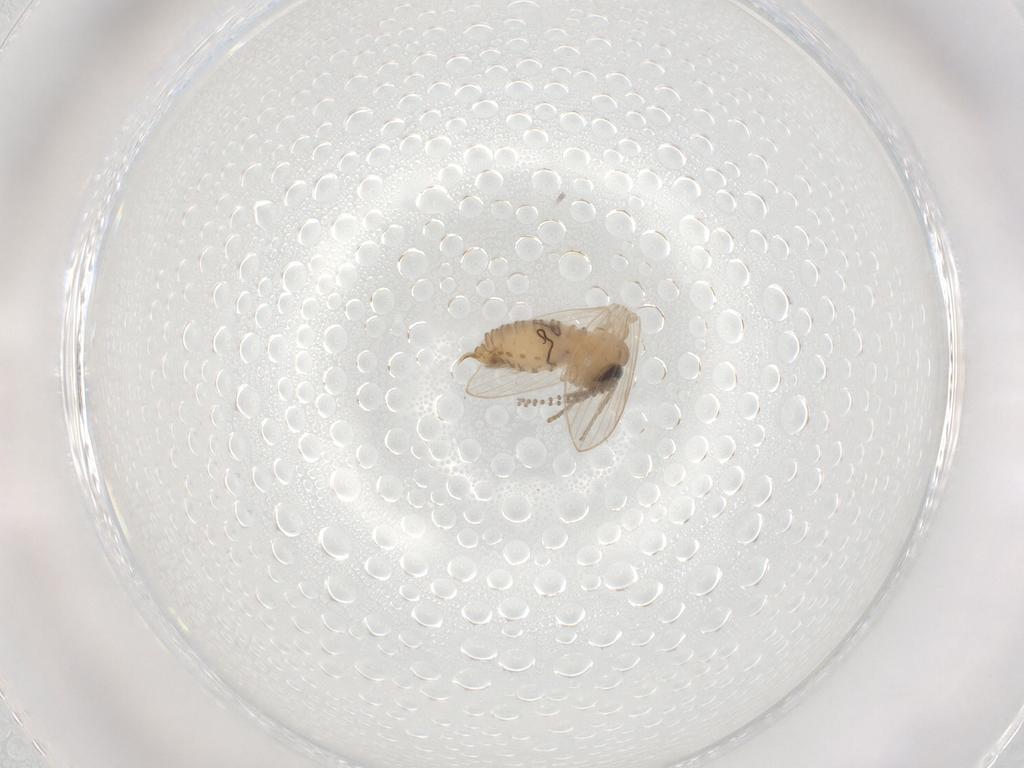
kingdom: Animalia
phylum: Arthropoda
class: Insecta
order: Diptera
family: Psychodidae
